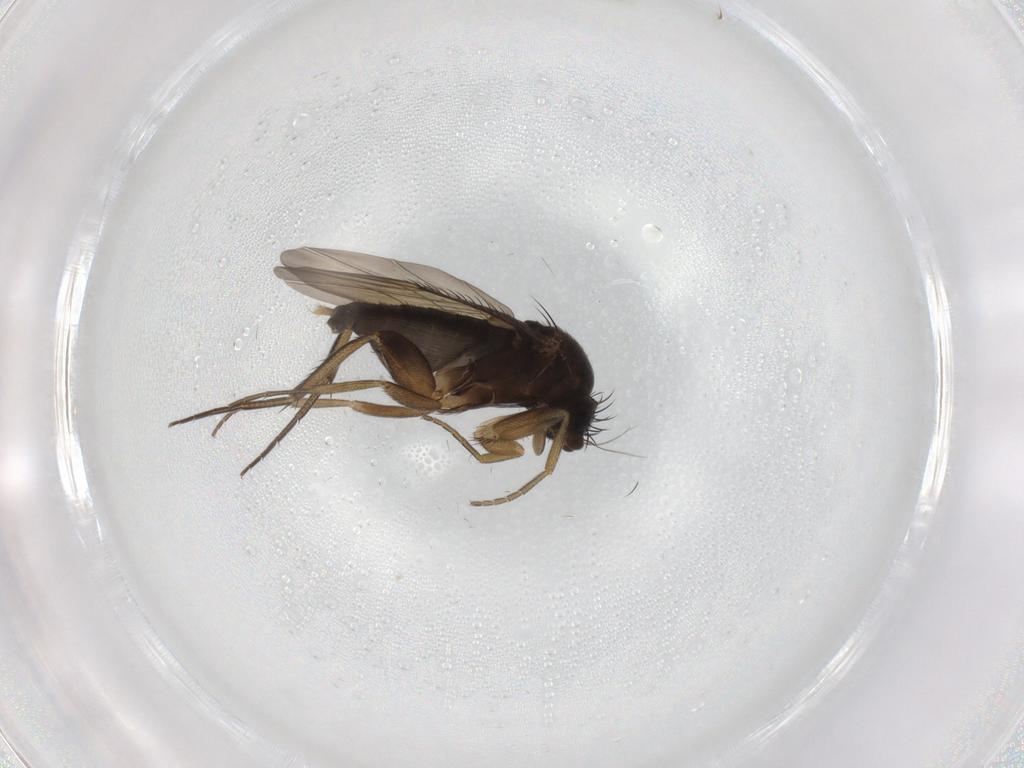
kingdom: Animalia
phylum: Arthropoda
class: Insecta
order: Diptera
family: Phoridae
